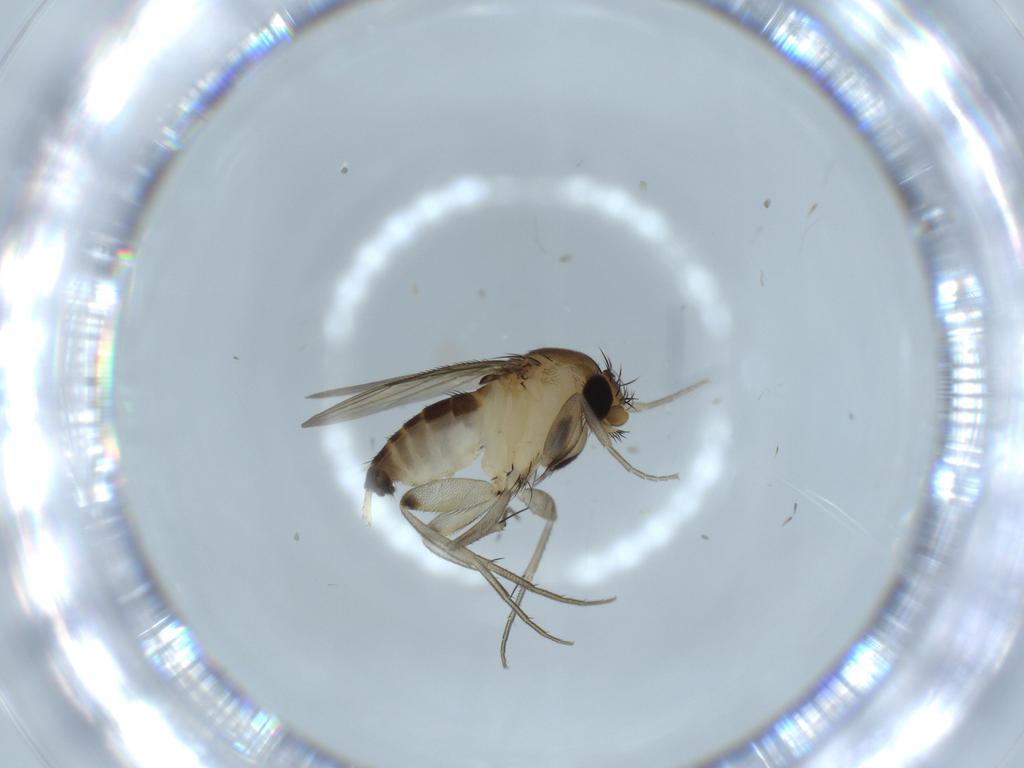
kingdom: Animalia
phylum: Arthropoda
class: Insecta
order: Diptera
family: Phoridae
